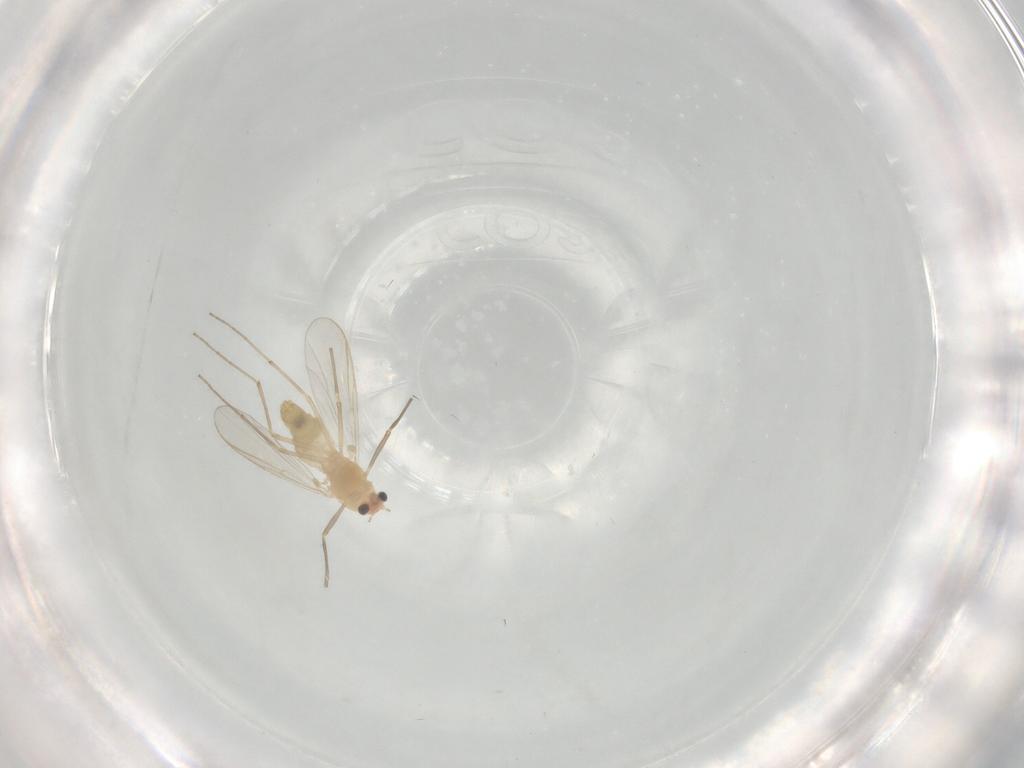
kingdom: Animalia
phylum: Arthropoda
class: Insecta
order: Diptera
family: Chironomidae
